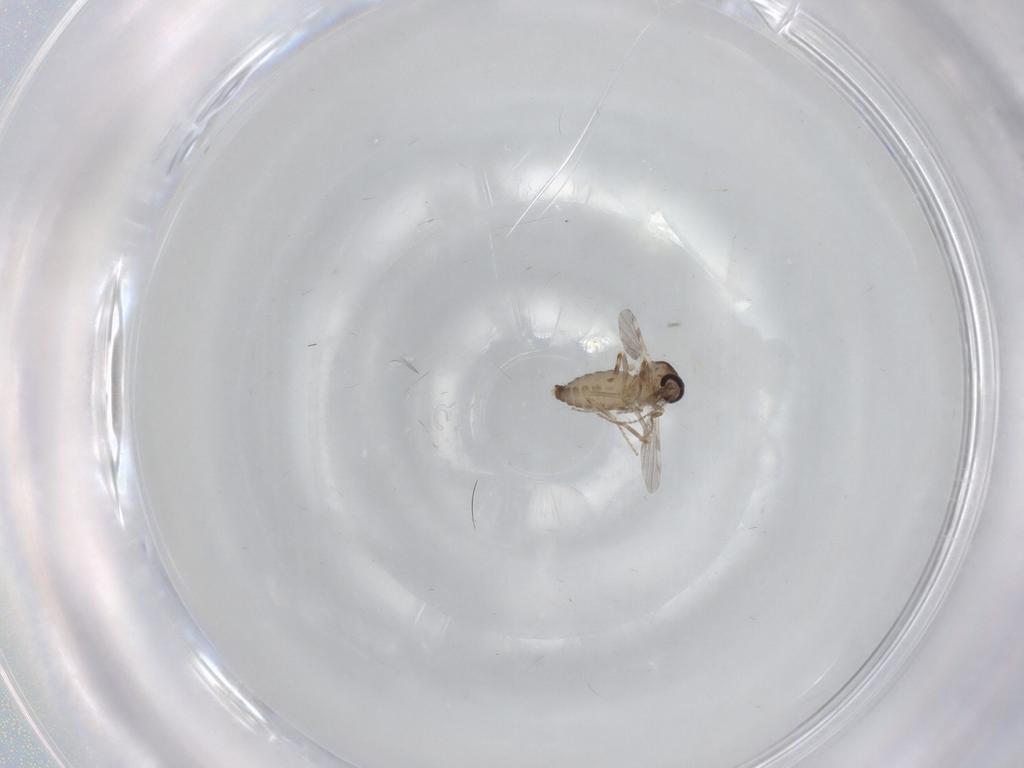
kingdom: Animalia
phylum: Arthropoda
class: Insecta
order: Diptera
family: Ceratopogonidae
